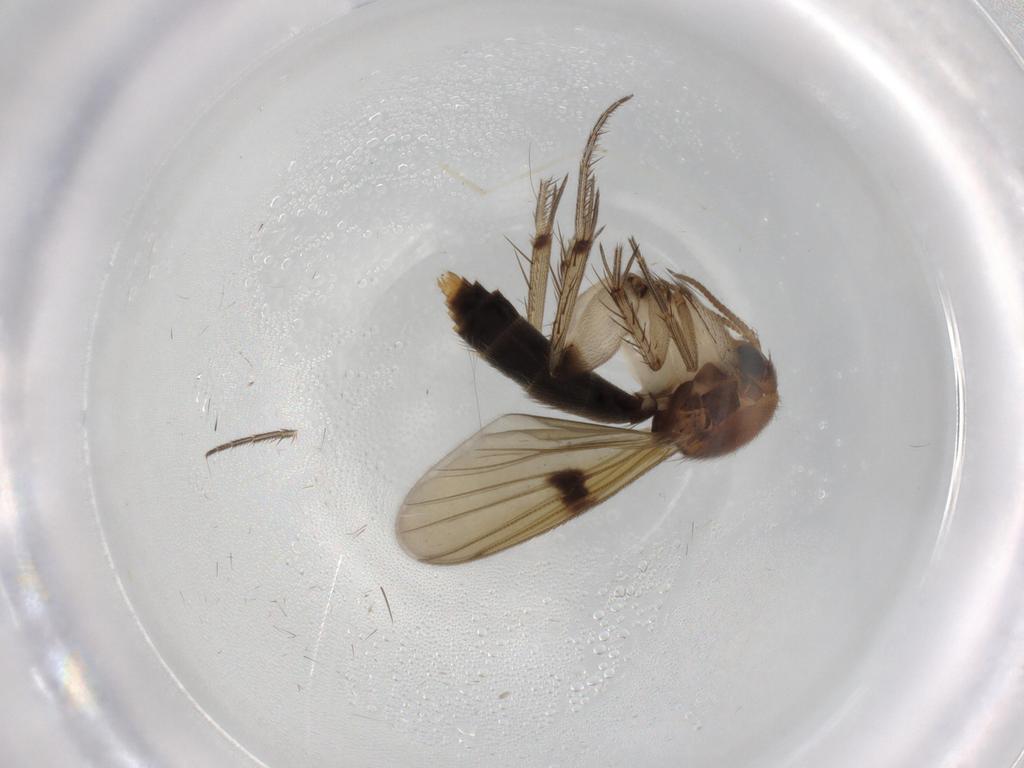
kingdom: Animalia
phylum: Arthropoda
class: Insecta
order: Diptera
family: Mycetophilidae
